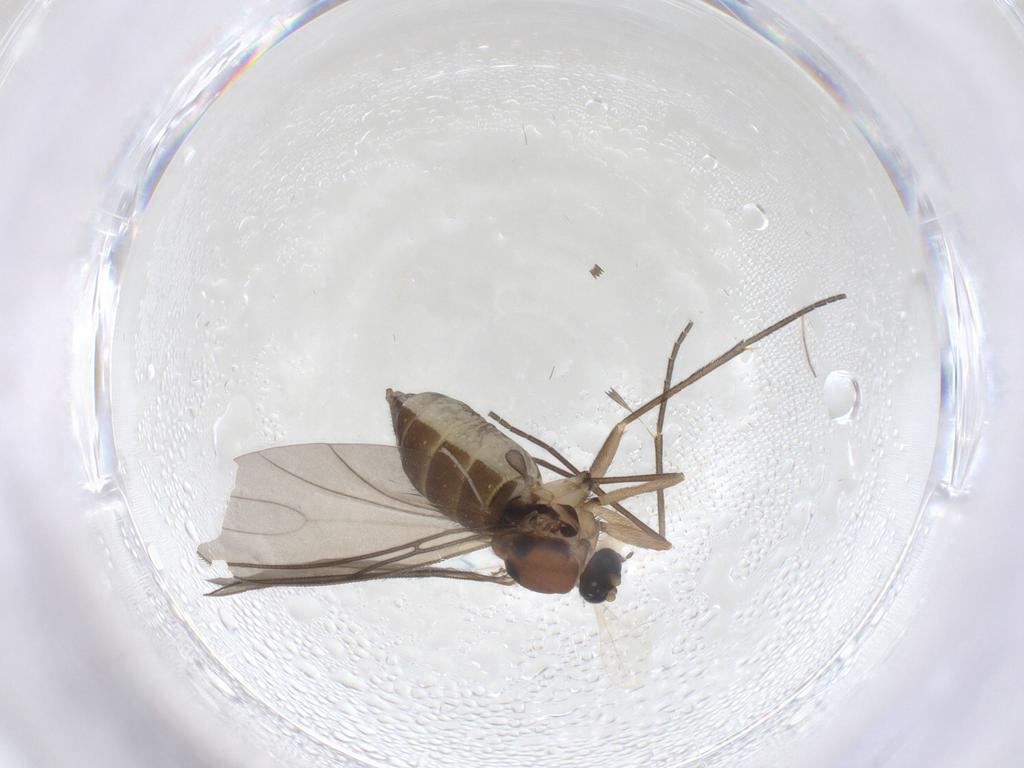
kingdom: Animalia
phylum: Arthropoda
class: Insecta
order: Diptera
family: Sciaridae
